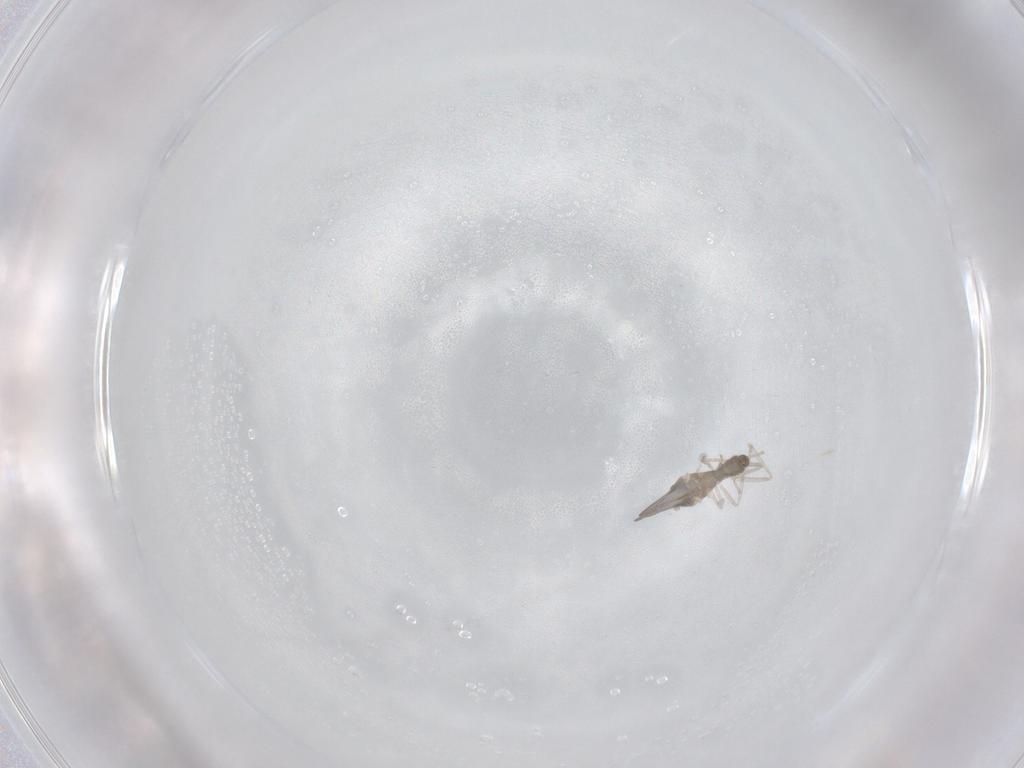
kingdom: Animalia
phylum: Arthropoda
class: Insecta
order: Diptera
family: Cecidomyiidae
